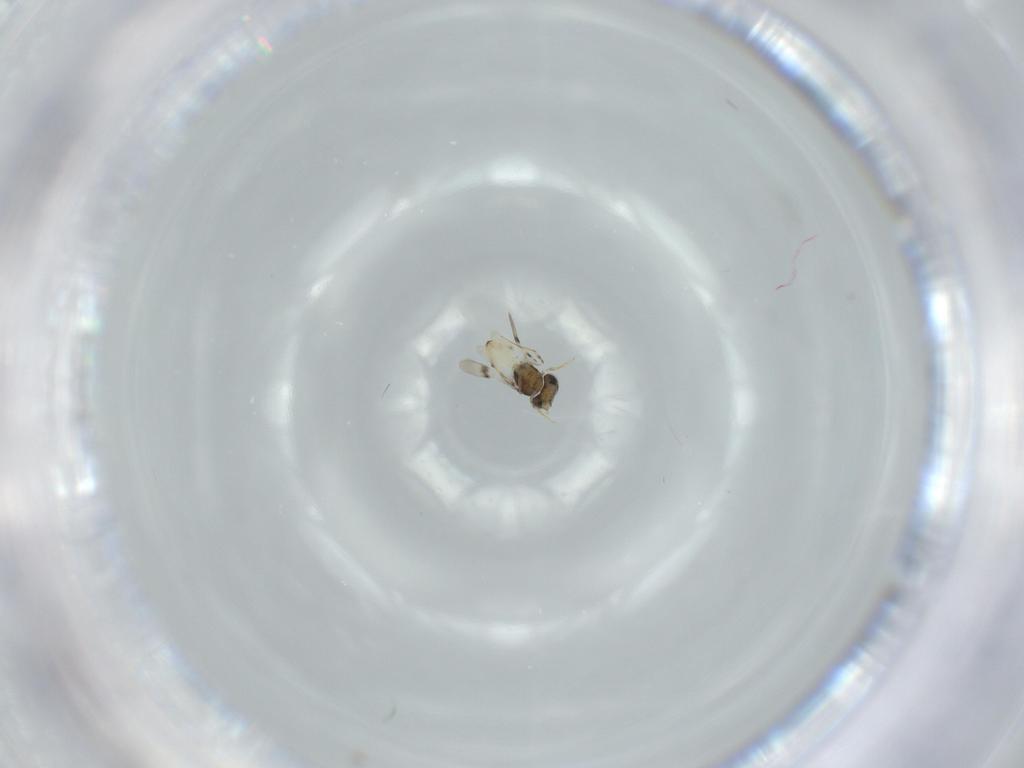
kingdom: Animalia
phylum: Arthropoda
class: Insecta
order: Hymenoptera
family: Scelionidae
